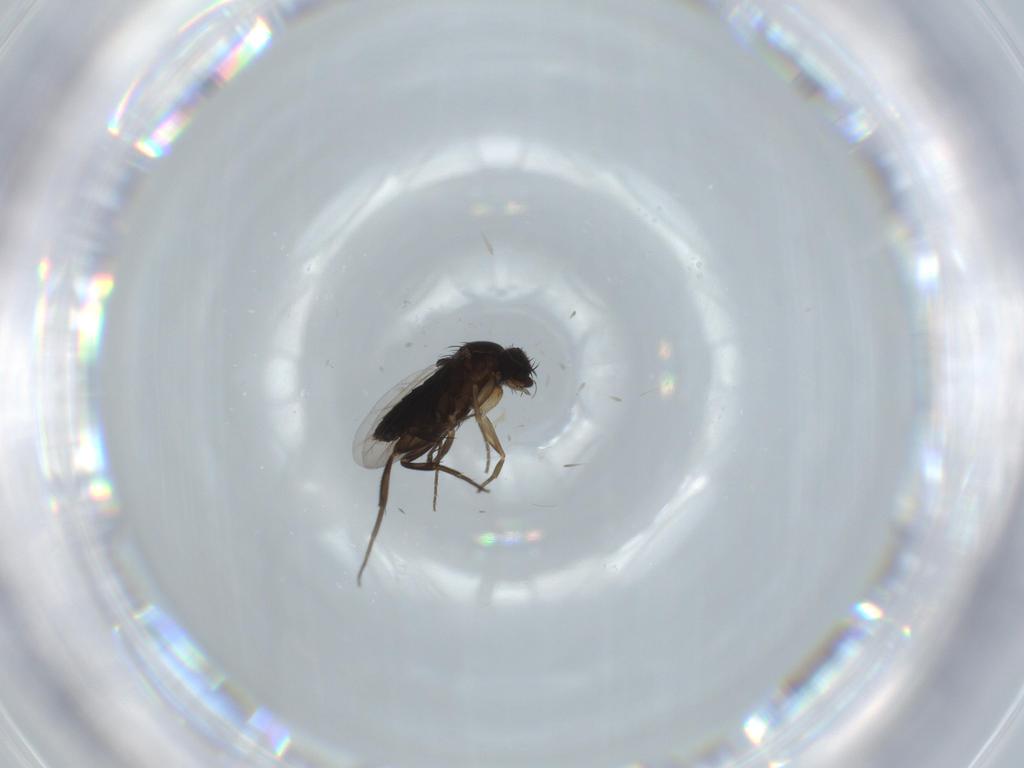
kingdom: Animalia
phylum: Arthropoda
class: Insecta
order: Diptera
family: Phoridae
